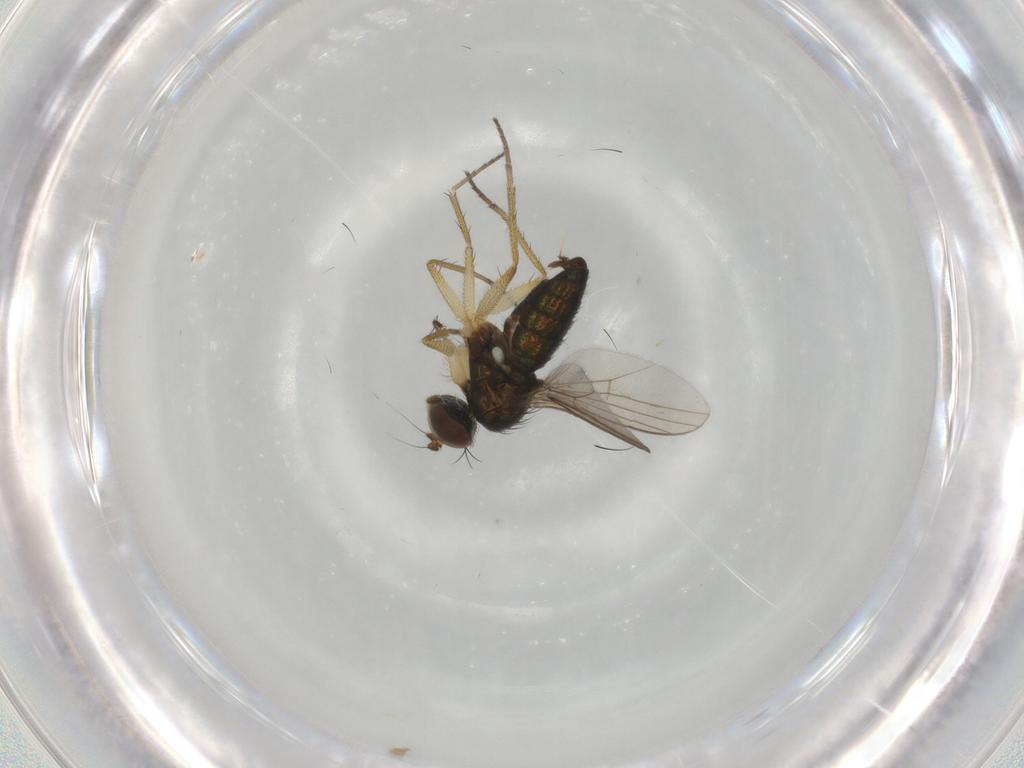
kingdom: Animalia
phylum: Arthropoda
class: Insecta
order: Diptera
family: Dolichopodidae
